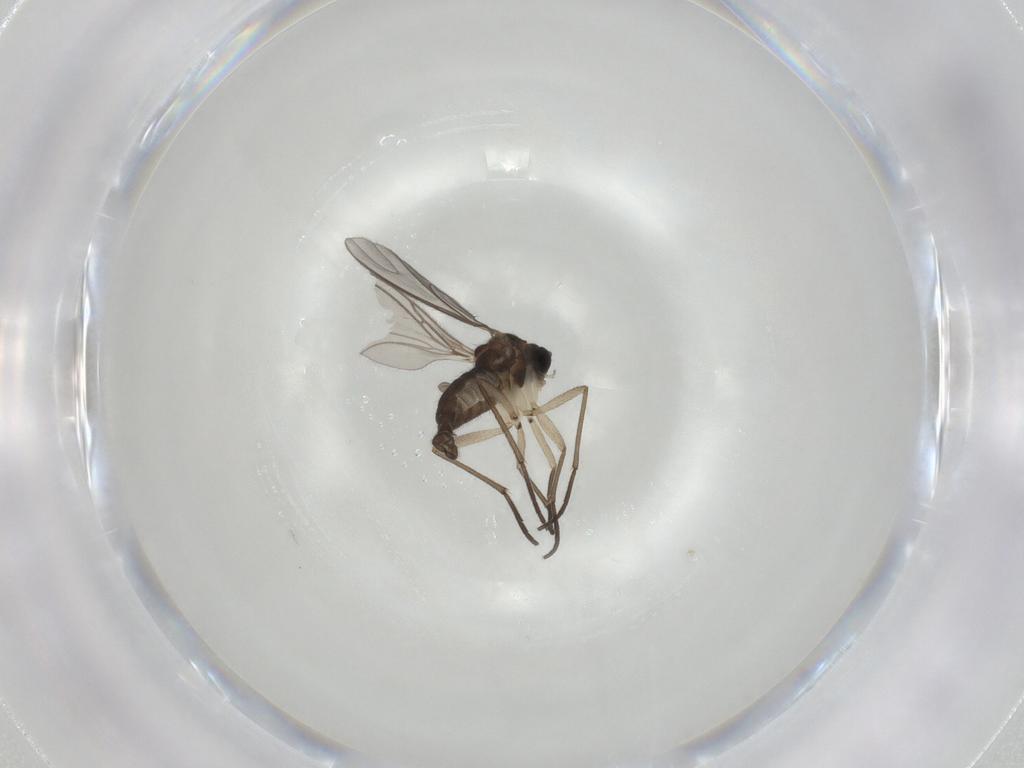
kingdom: Animalia
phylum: Arthropoda
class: Insecta
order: Diptera
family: Sciaridae
